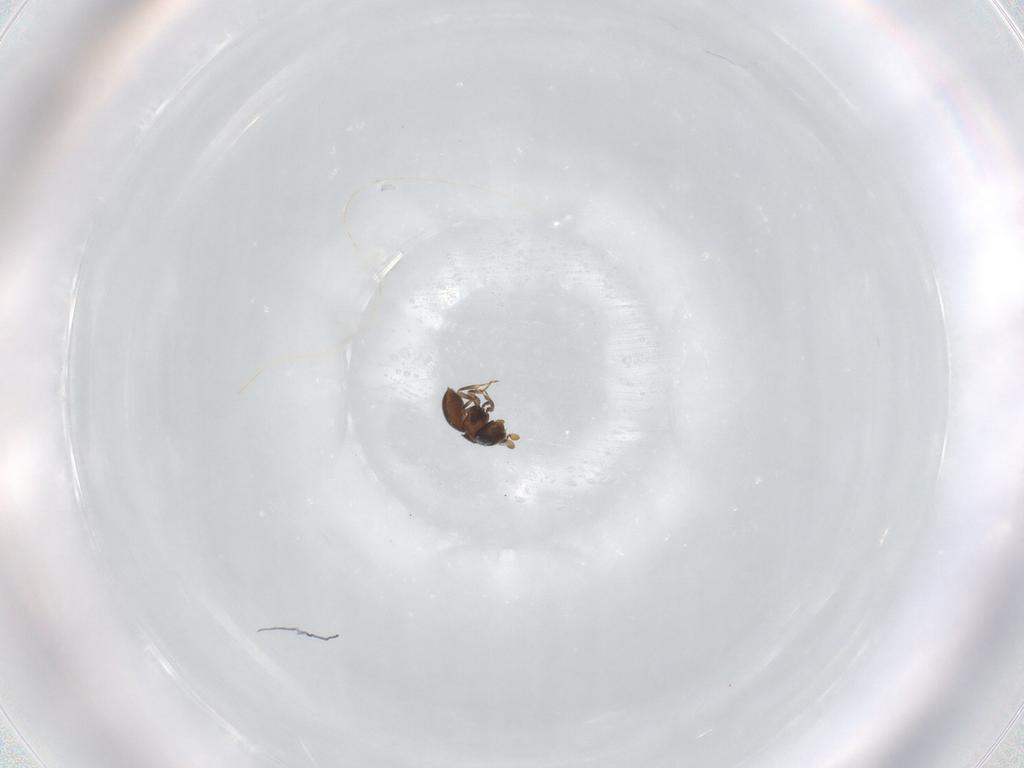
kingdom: Animalia
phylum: Arthropoda
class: Insecta
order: Hymenoptera
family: Scelionidae
